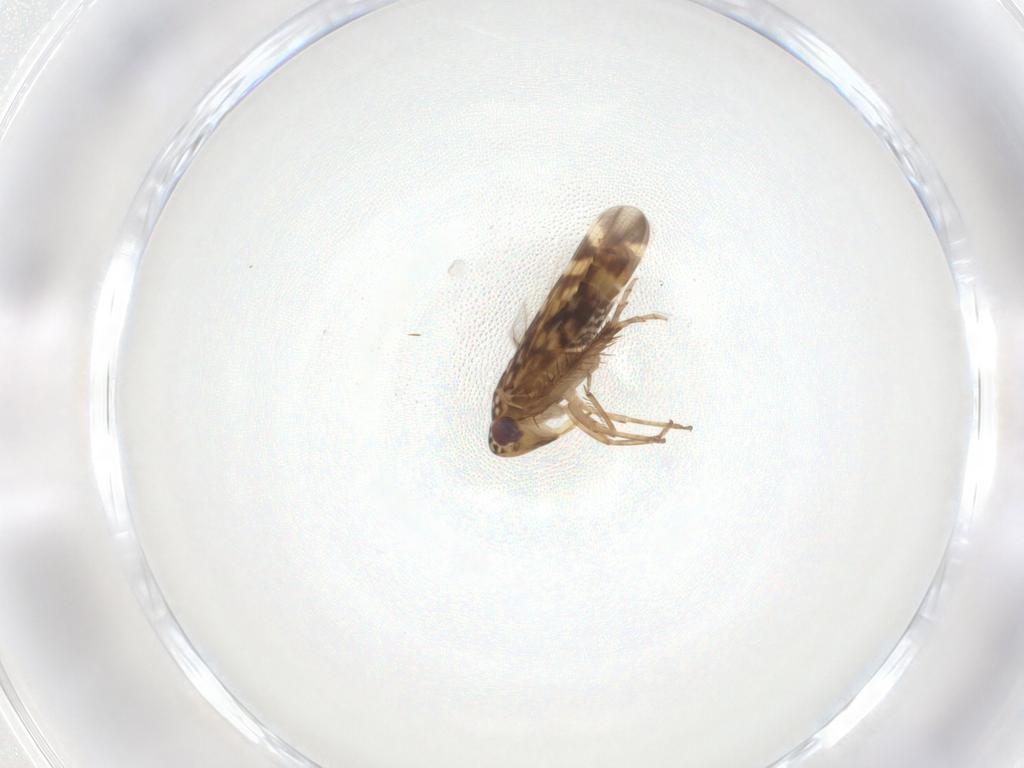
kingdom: Animalia
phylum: Arthropoda
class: Insecta
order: Hemiptera
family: Cicadellidae
